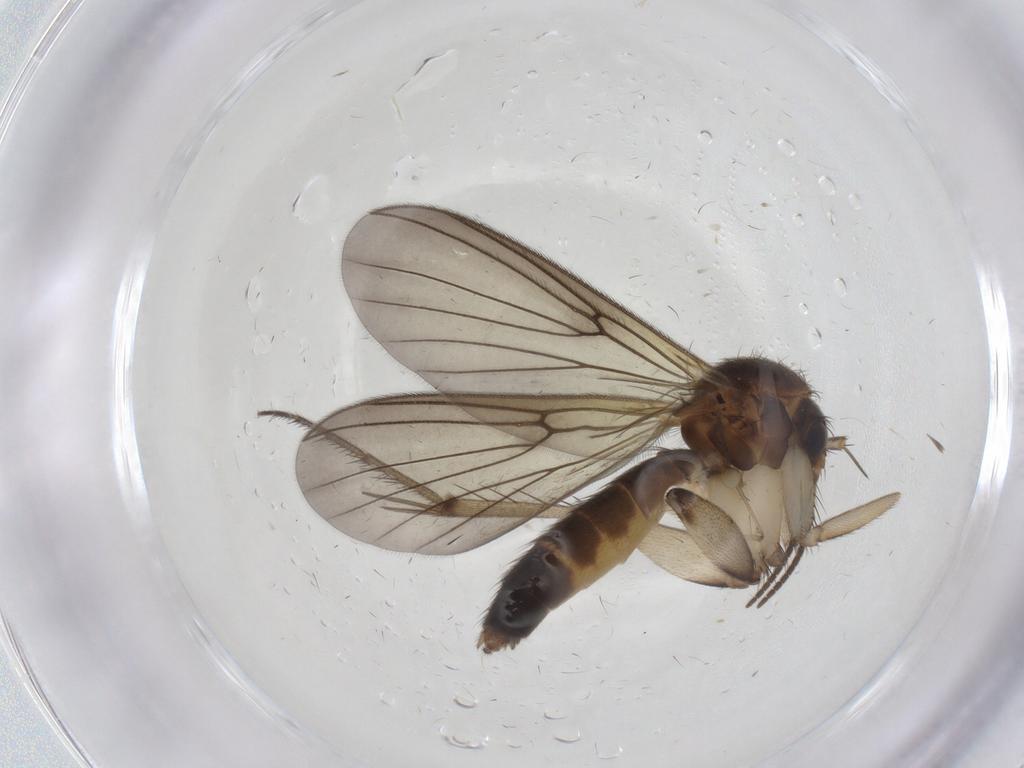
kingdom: Animalia
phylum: Arthropoda
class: Insecta
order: Diptera
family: Mycetophilidae
